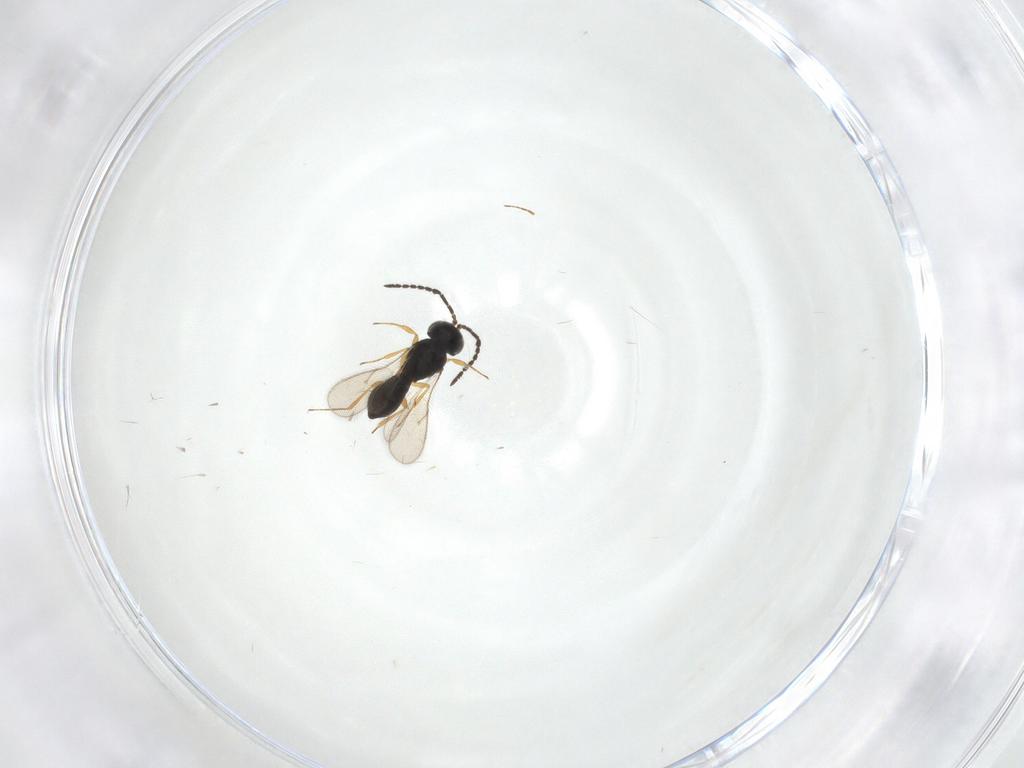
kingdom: Animalia
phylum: Arthropoda
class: Insecta
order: Hymenoptera
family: Scelionidae
